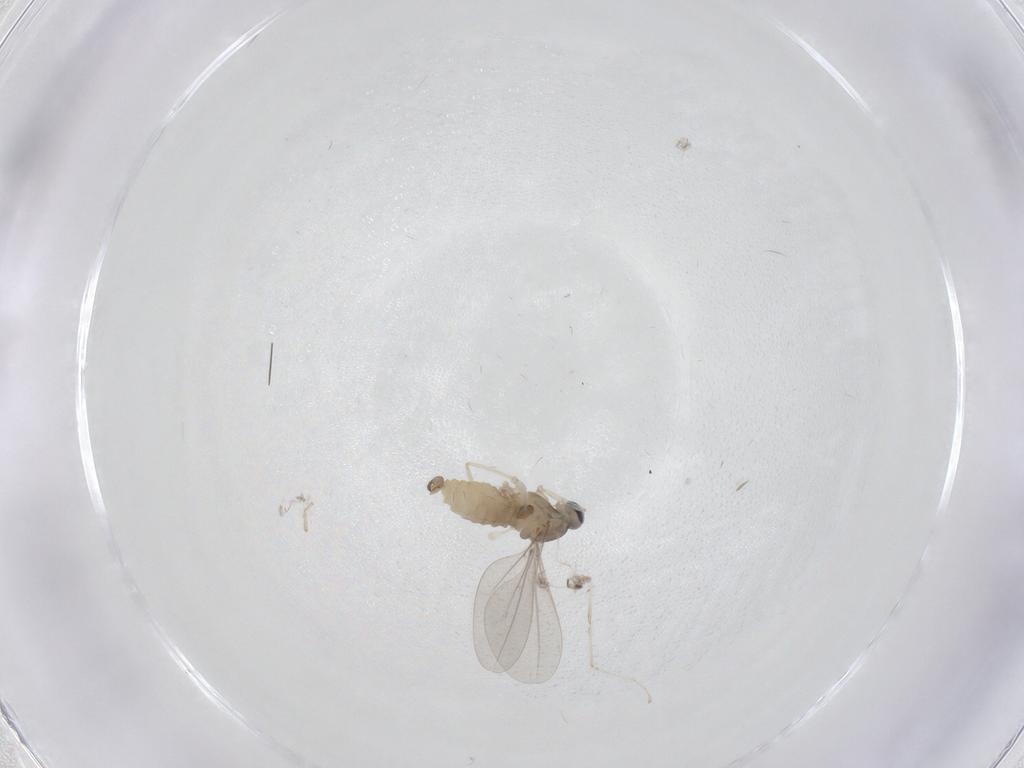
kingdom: Animalia
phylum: Arthropoda
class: Insecta
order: Diptera
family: Cecidomyiidae
